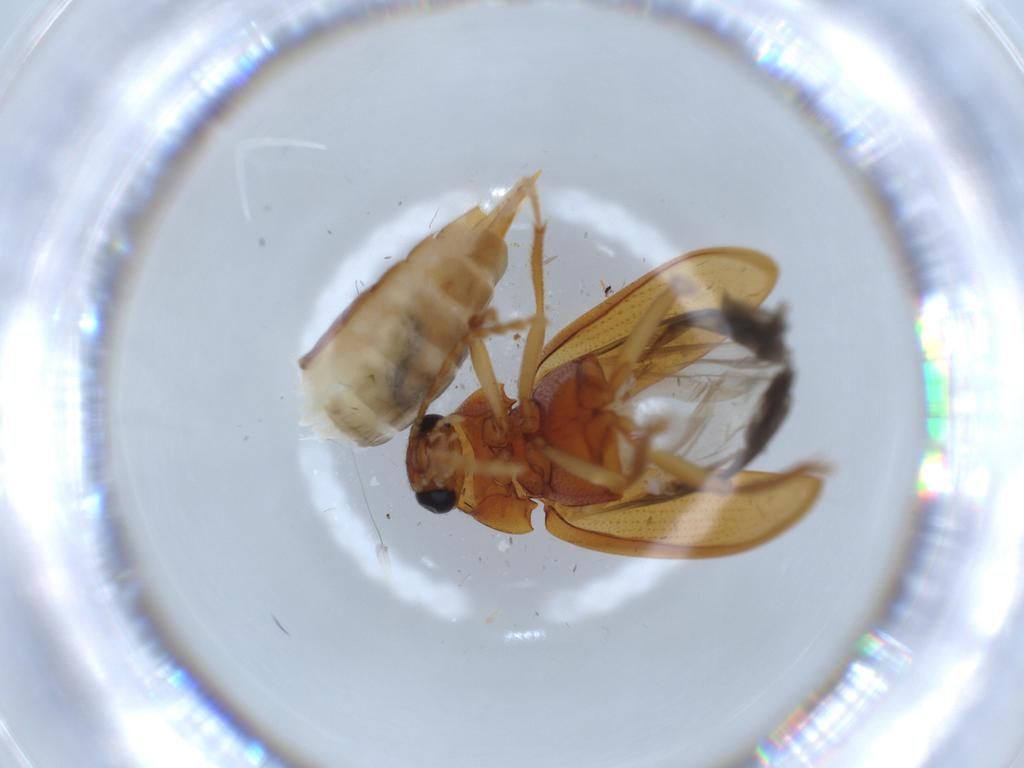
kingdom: Animalia
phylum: Arthropoda
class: Insecta
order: Coleoptera
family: Ptilodactylidae
